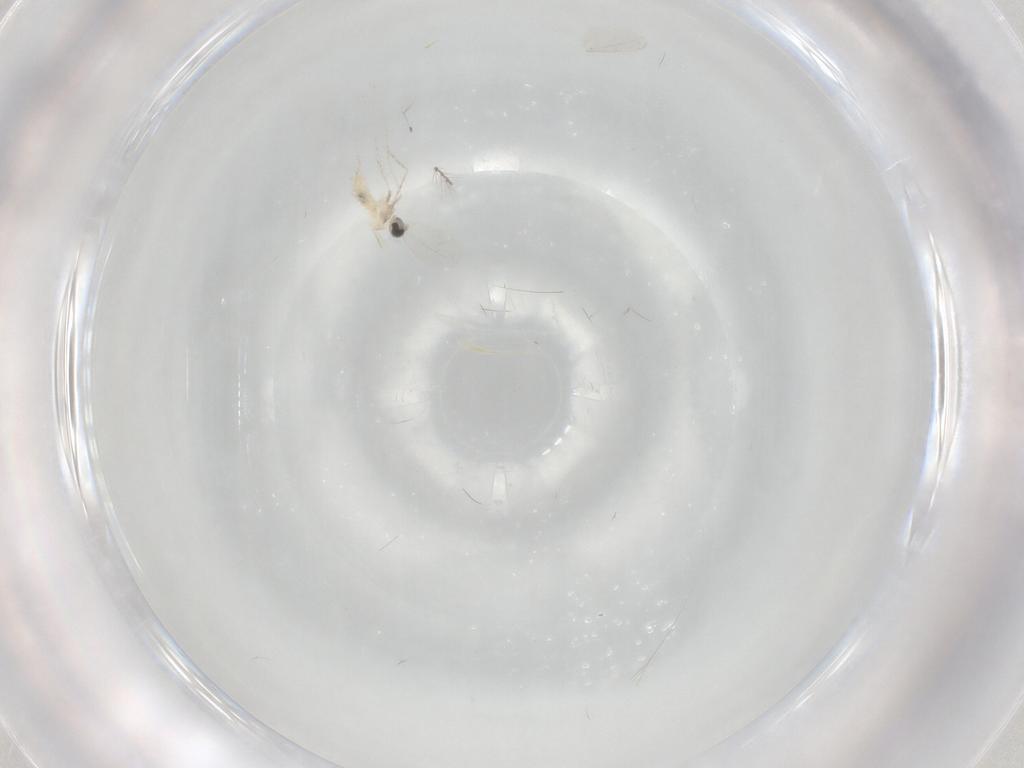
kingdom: Animalia
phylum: Arthropoda
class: Insecta
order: Diptera
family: Cecidomyiidae
